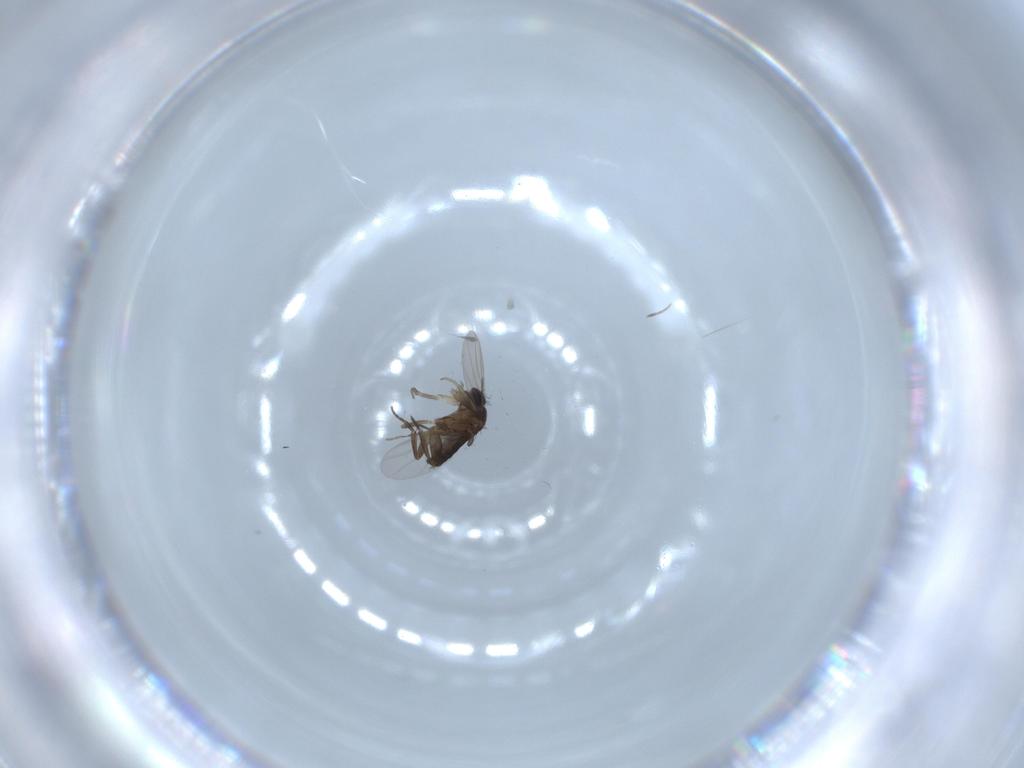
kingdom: Animalia
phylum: Arthropoda
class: Insecta
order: Diptera
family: Phoridae
